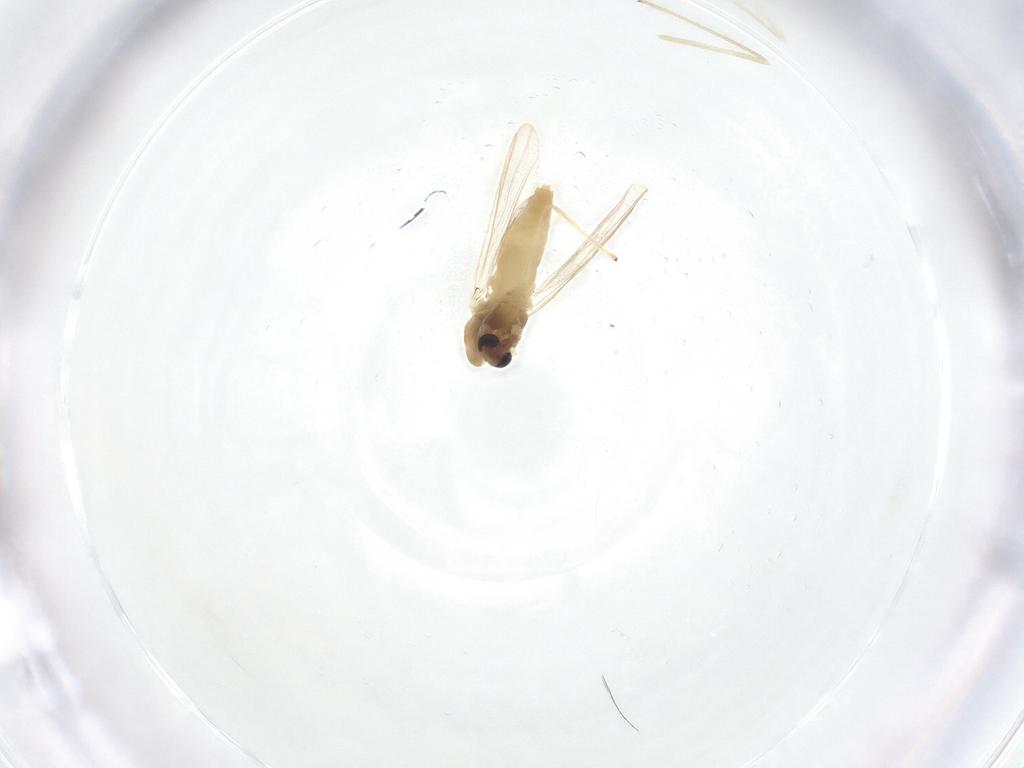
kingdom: Animalia
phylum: Arthropoda
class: Insecta
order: Diptera
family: Chironomidae
